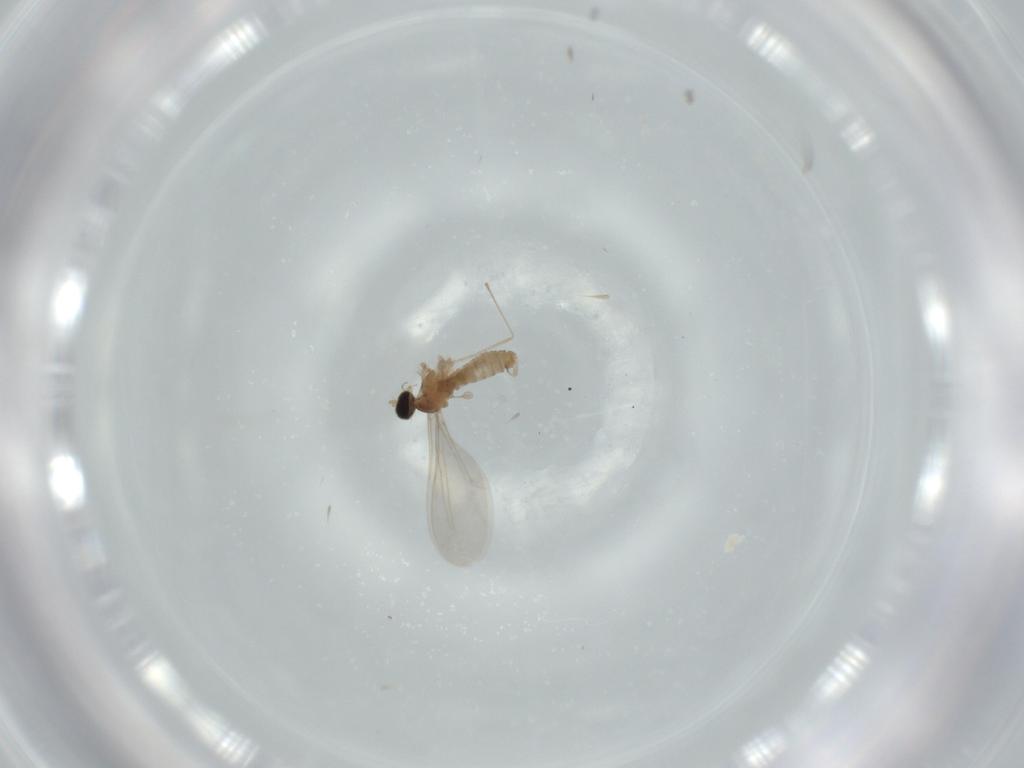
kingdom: Animalia
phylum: Arthropoda
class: Insecta
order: Diptera
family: Cecidomyiidae
